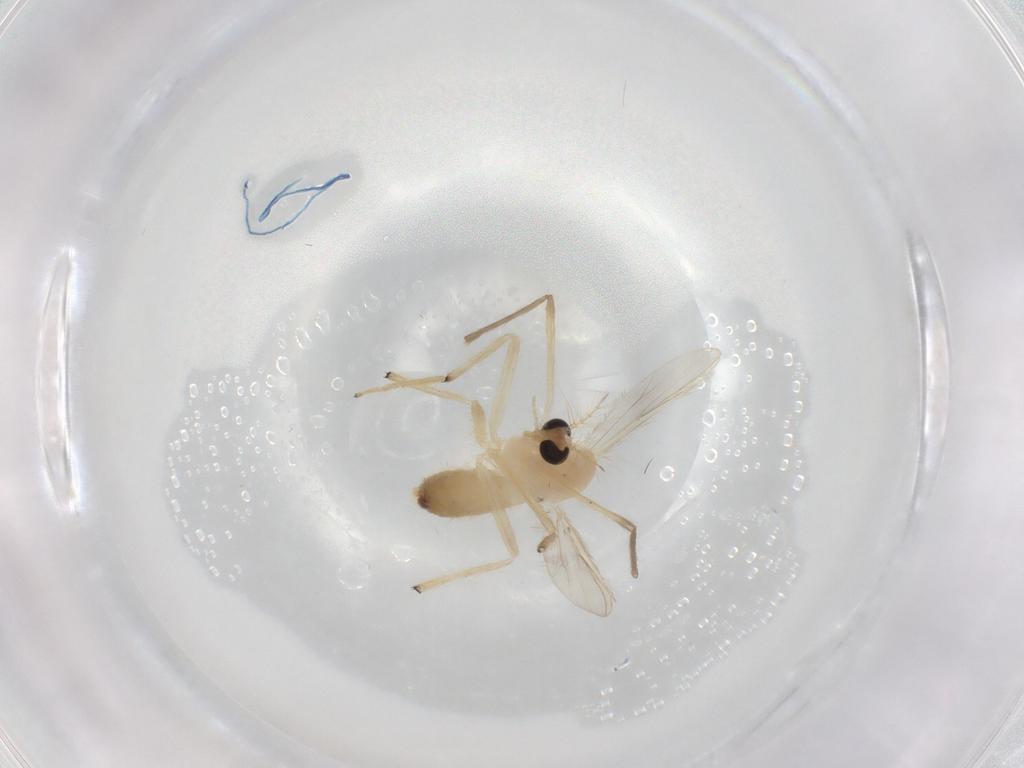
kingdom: Animalia
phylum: Arthropoda
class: Insecta
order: Diptera
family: Chironomidae
